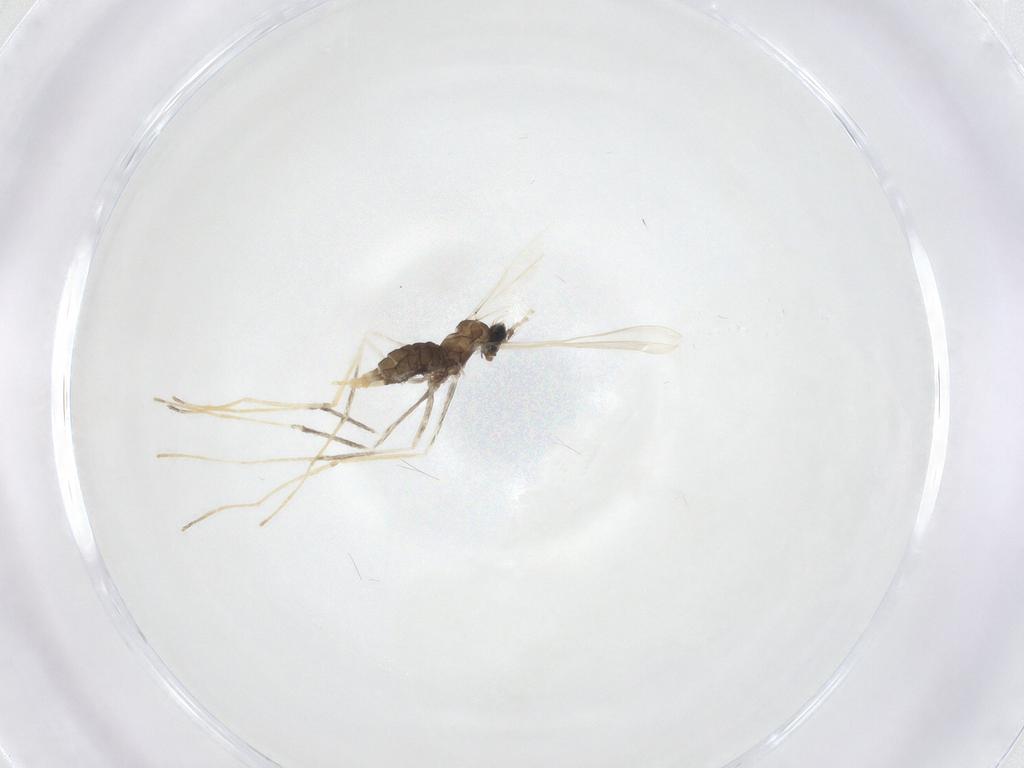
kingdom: Animalia
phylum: Arthropoda
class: Insecta
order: Diptera
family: Cecidomyiidae
